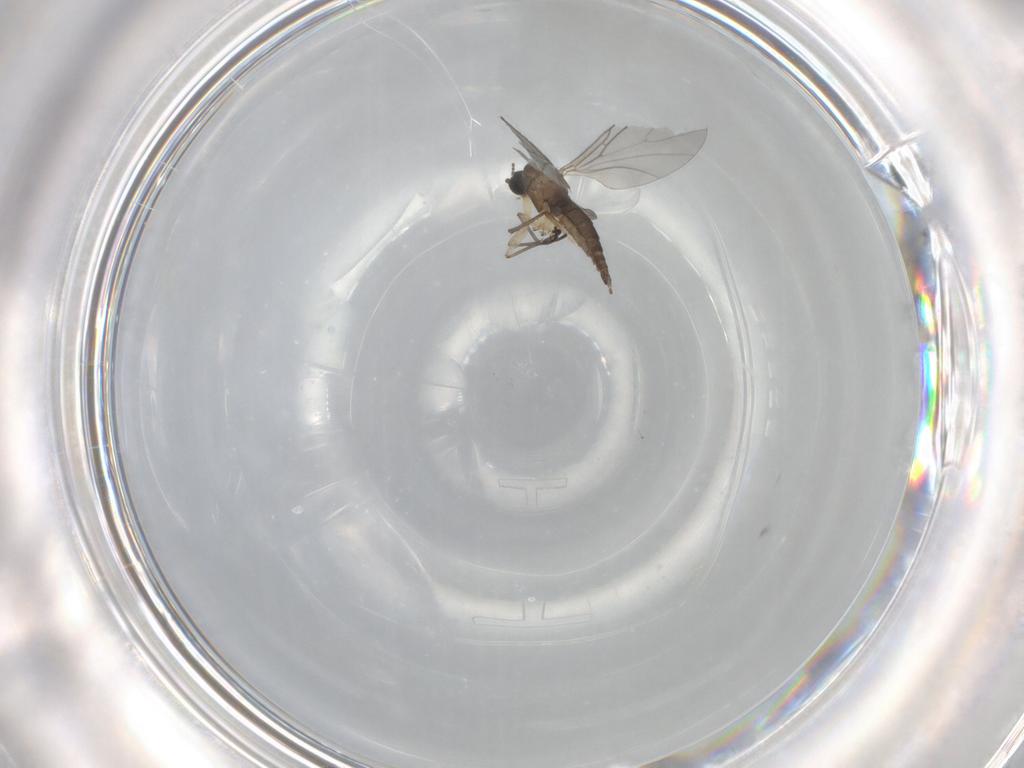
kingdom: Animalia
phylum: Arthropoda
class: Insecta
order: Diptera
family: Sciaridae
